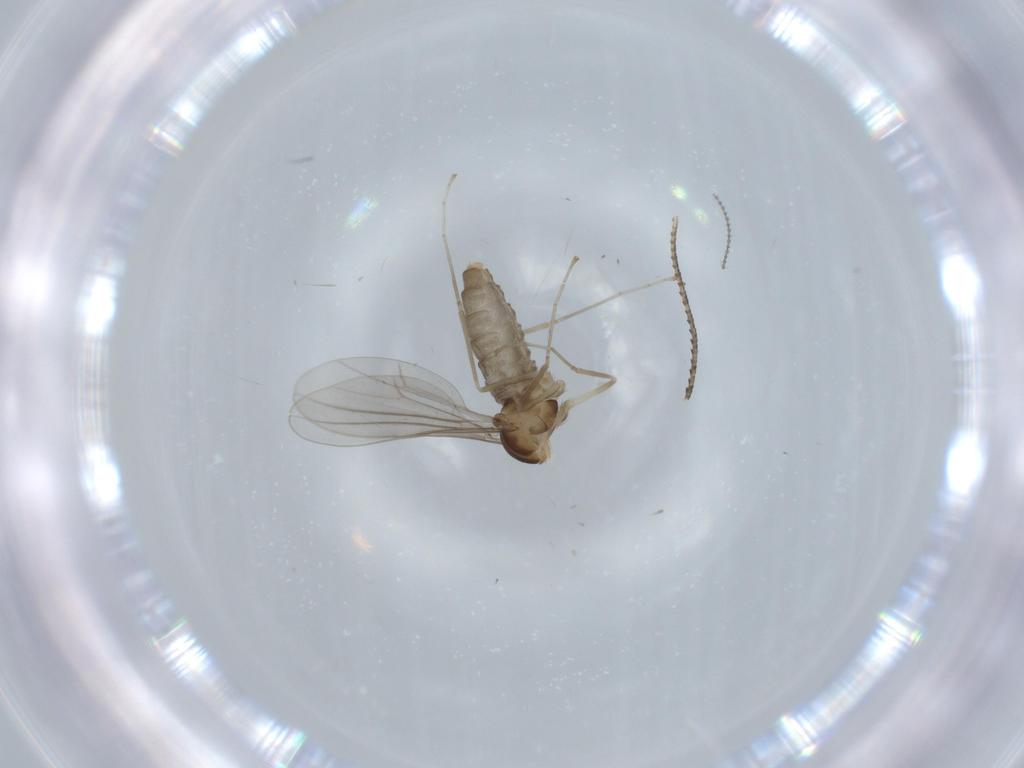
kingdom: Animalia
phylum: Arthropoda
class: Insecta
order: Diptera
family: Cecidomyiidae
